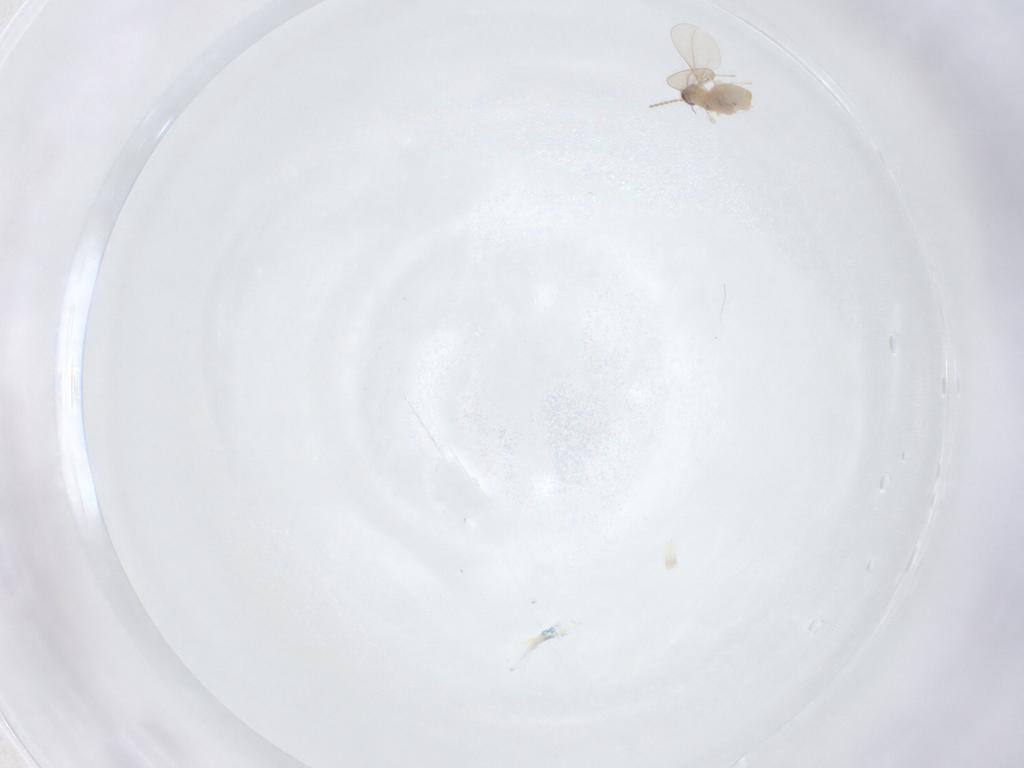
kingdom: Animalia
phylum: Arthropoda
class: Insecta
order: Diptera
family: Cecidomyiidae
